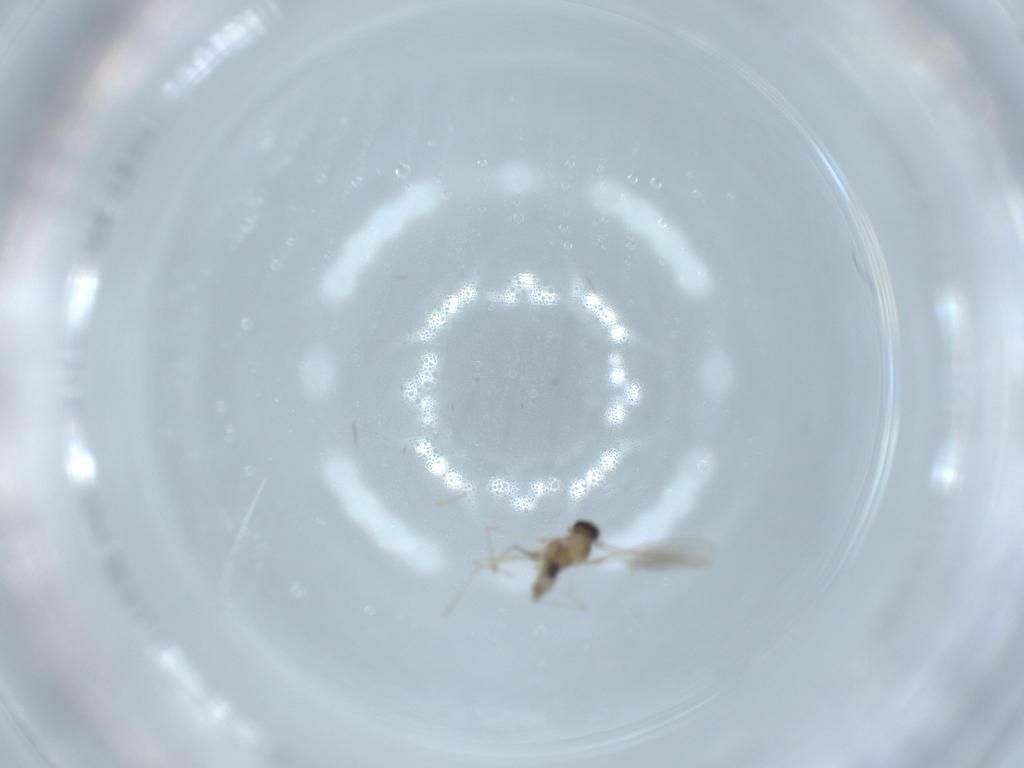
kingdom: Animalia
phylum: Arthropoda
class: Insecta
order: Diptera
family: Cecidomyiidae
